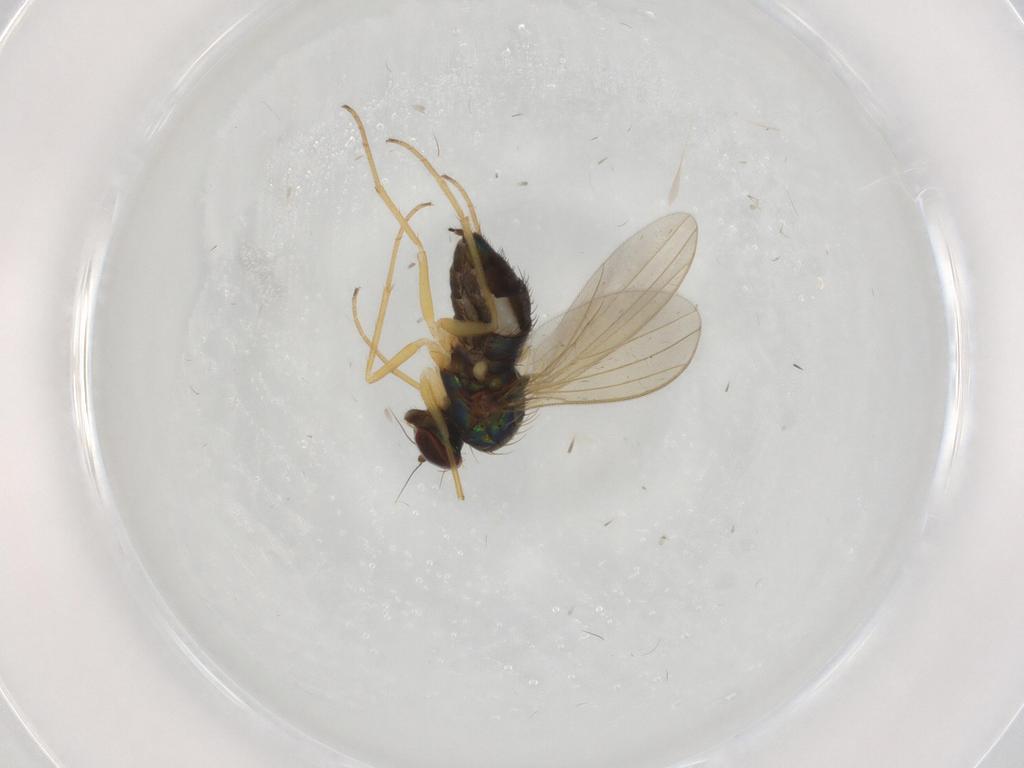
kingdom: Animalia
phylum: Arthropoda
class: Insecta
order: Diptera
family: Dolichopodidae
